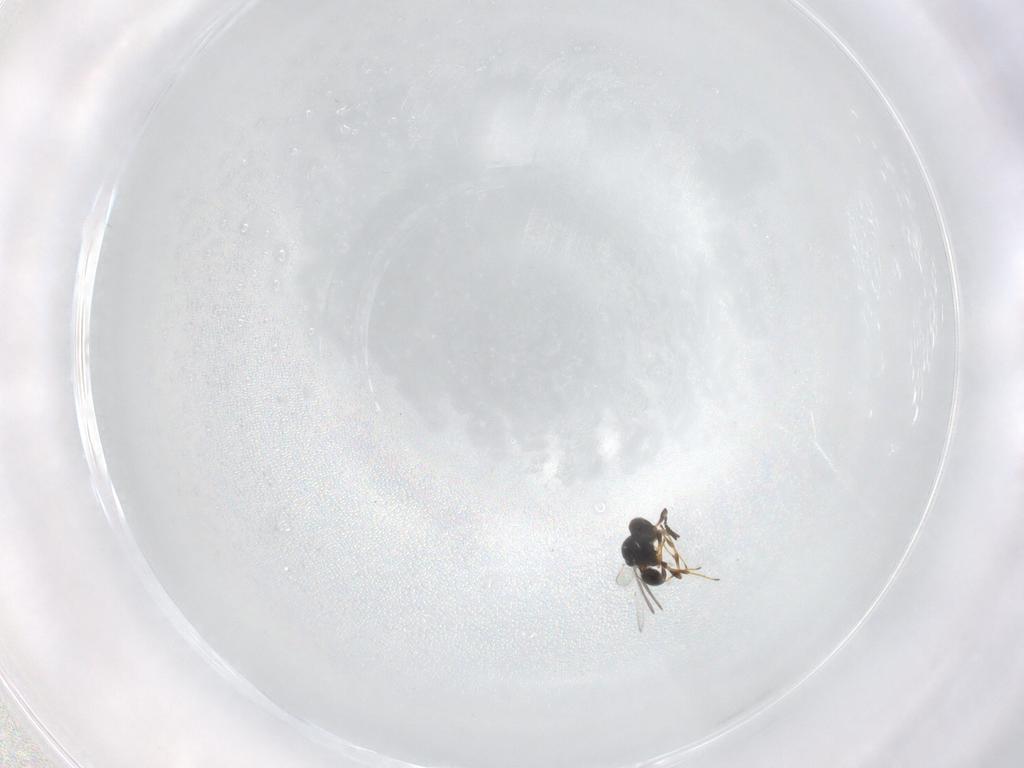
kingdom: Animalia
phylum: Arthropoda
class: Insecta
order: Hymenoptera
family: Platygastridae
